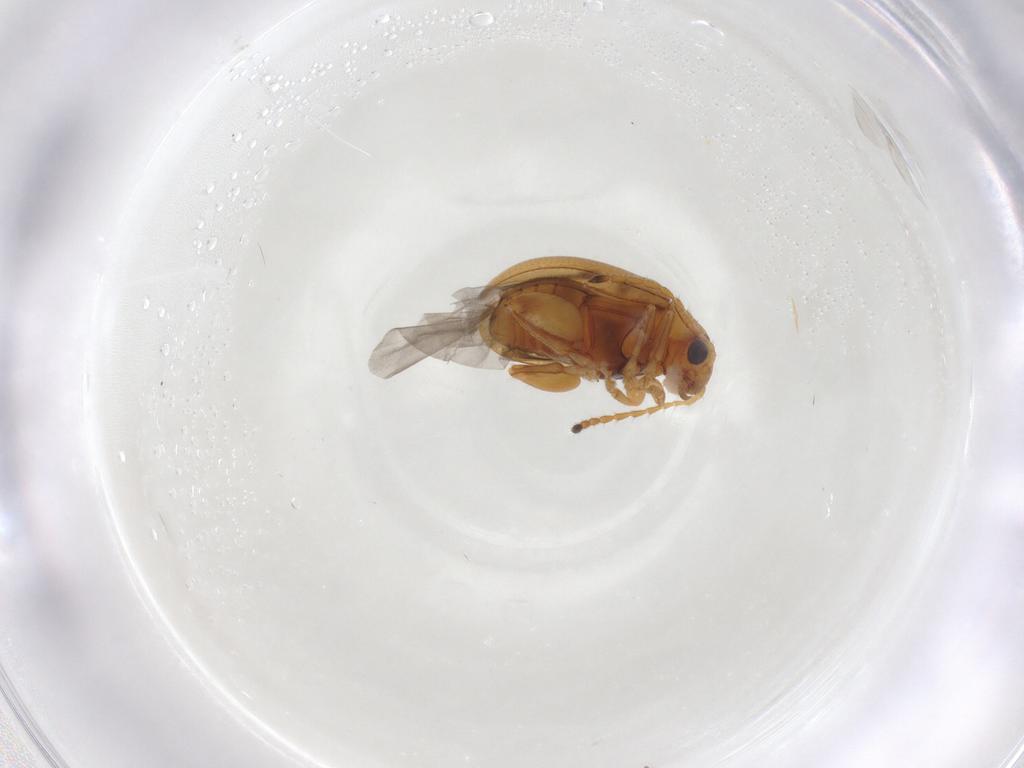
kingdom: Animalia
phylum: Arthropoda
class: Insecta
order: Coleoptera
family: Chrysomelidae
